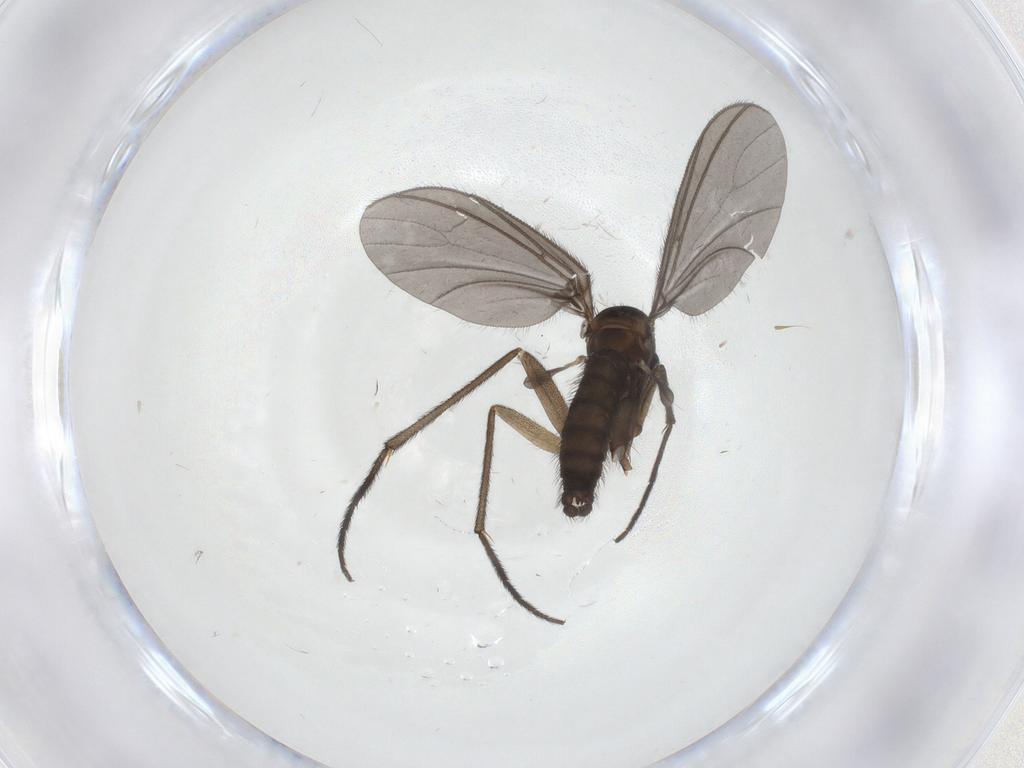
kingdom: Animalia
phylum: Arthropoda
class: Insecta
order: Diptera
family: Sciaridae
